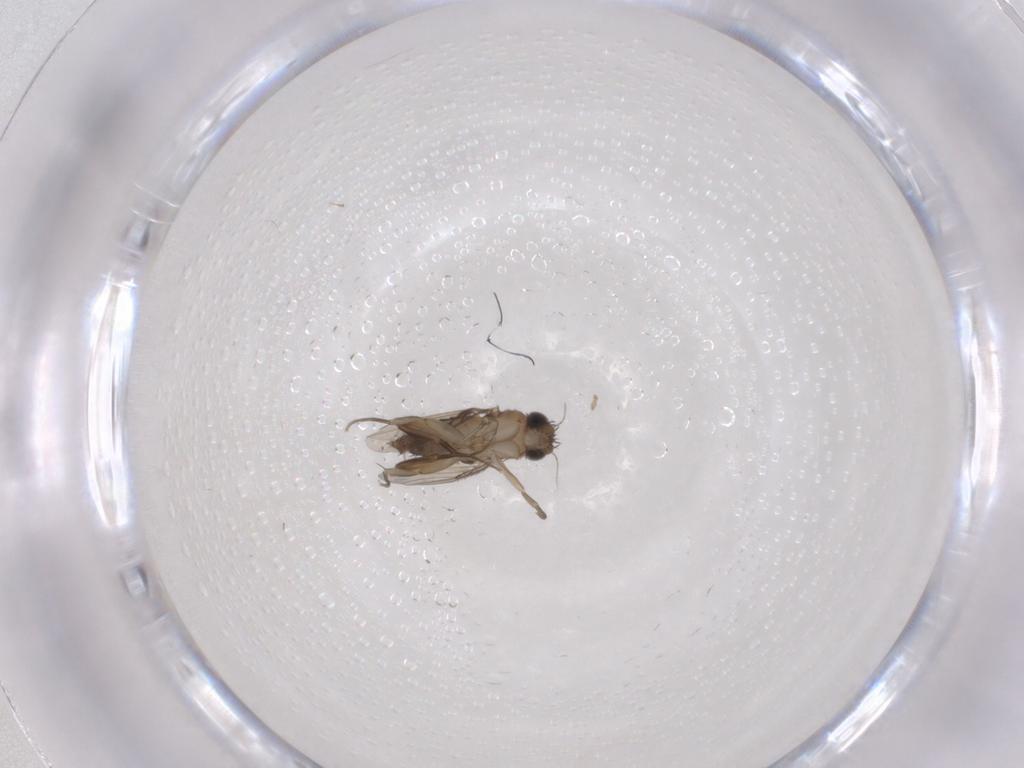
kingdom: Animalia
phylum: Arthropoda
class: Insecta
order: Diptera
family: Phoridae
